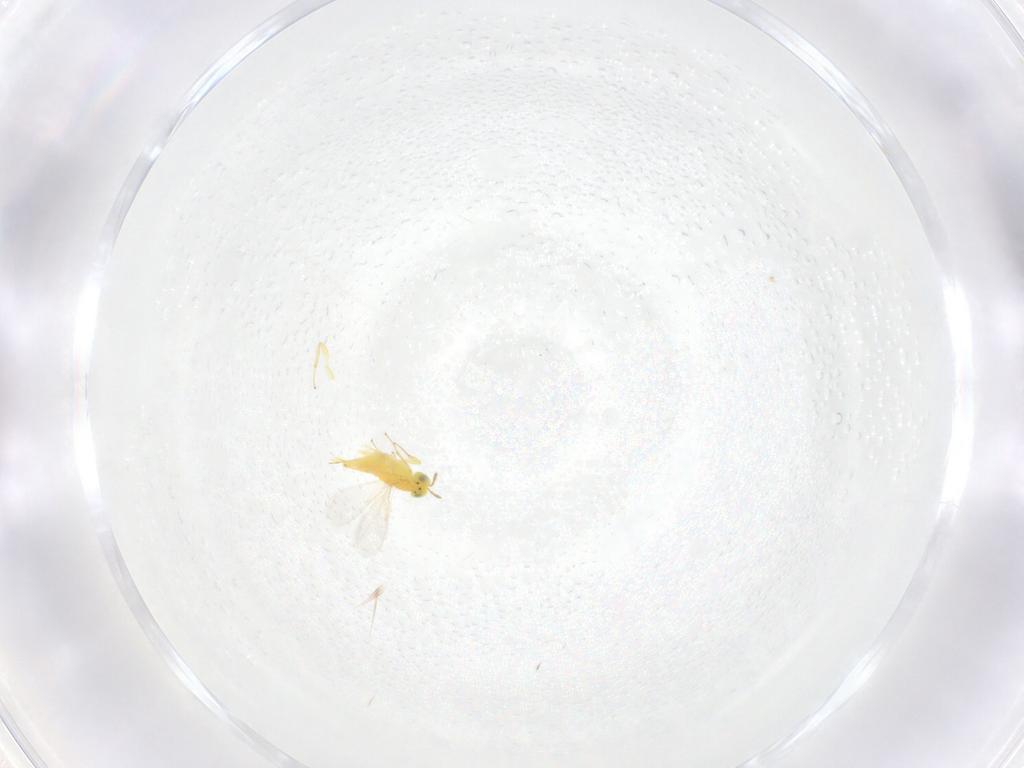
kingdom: Animalia
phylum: Arthropoda
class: Insecta
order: Hymenoptera
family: Aphelinidae
